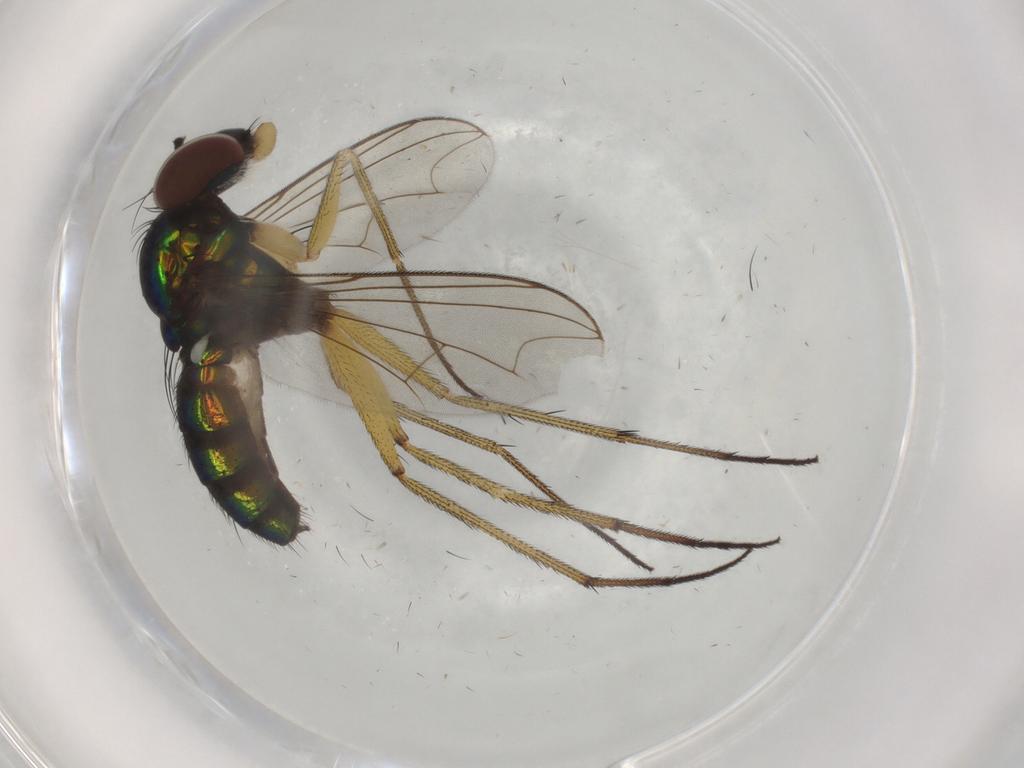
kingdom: Animalia
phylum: Arthropoda
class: Insecta
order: Diptera
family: Dolichopodidae
